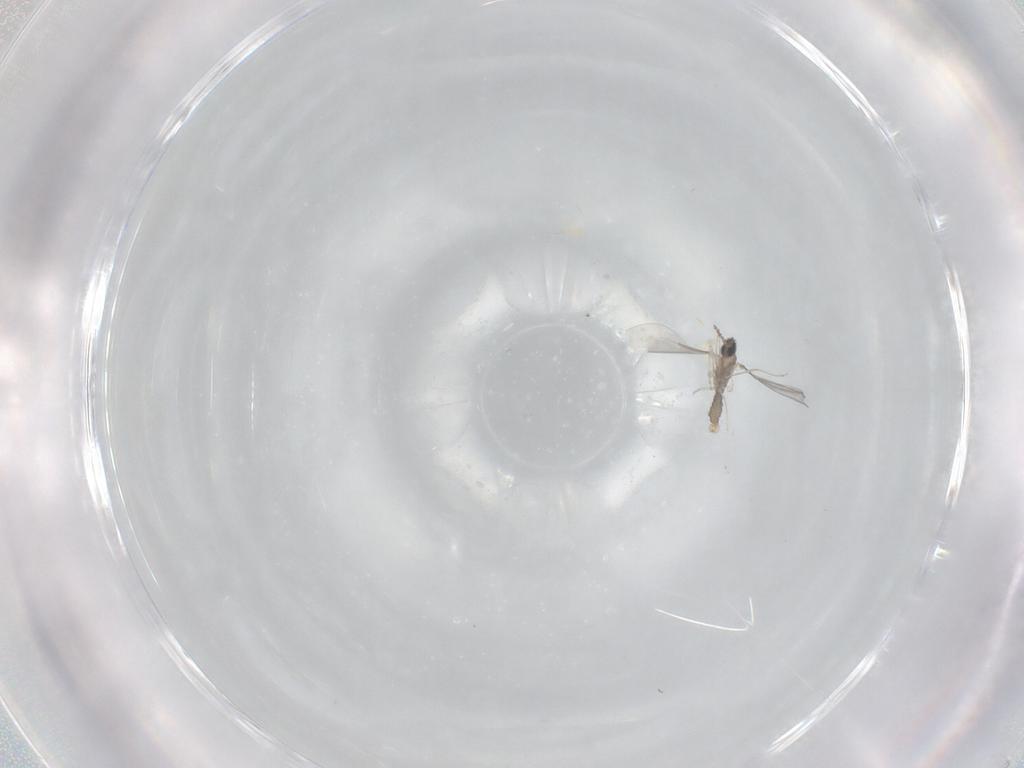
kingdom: Animalia
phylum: Arthropoda
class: Insecta
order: Diptera
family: Cecidomyiidae
